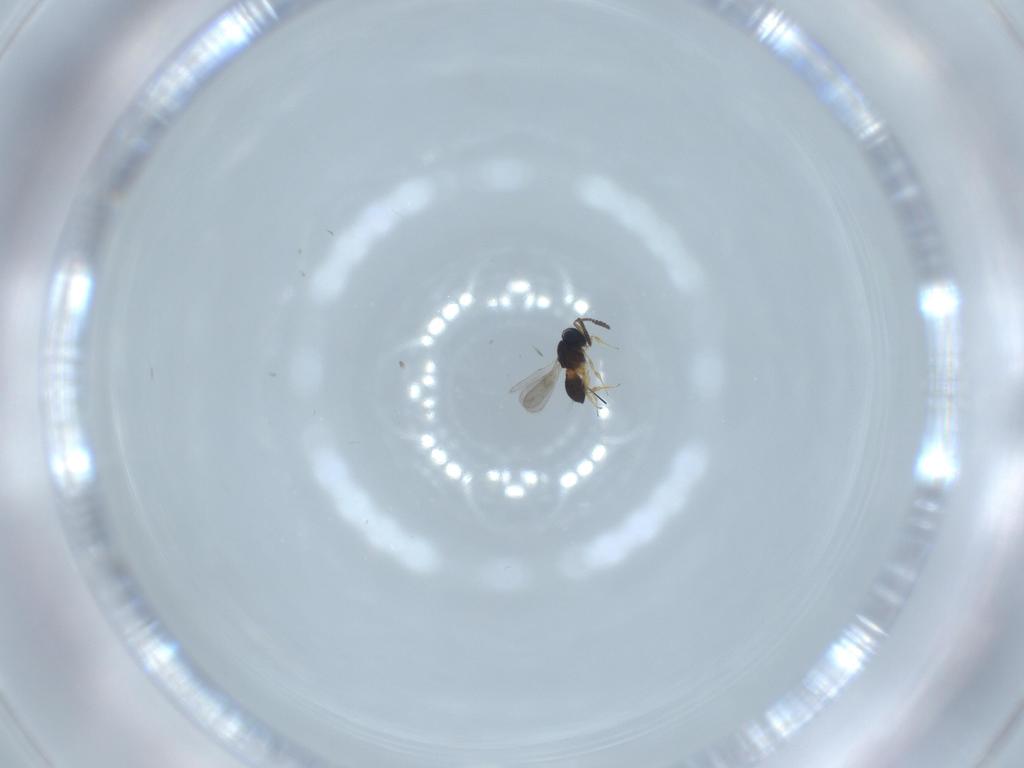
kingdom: Animalia
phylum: Arthropoda
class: Insecta
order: Hymenoptera
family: Scelionidae
